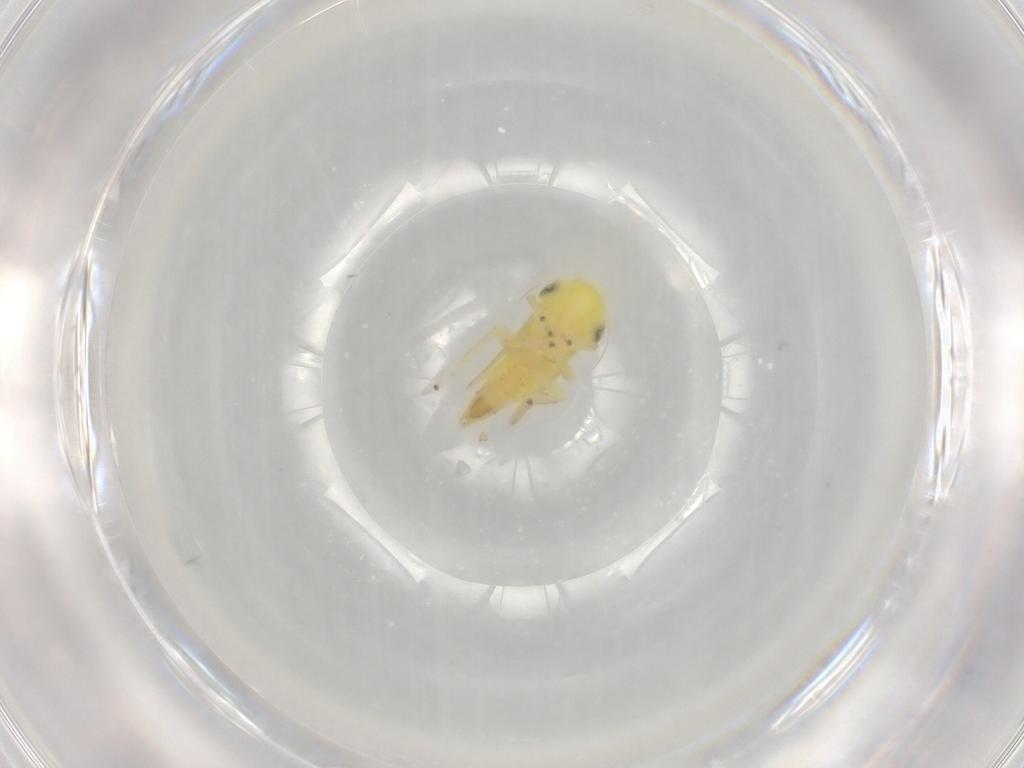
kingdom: Animalia
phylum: Arthropoda
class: Insecta
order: Hemiptera
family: Cicadellidae
